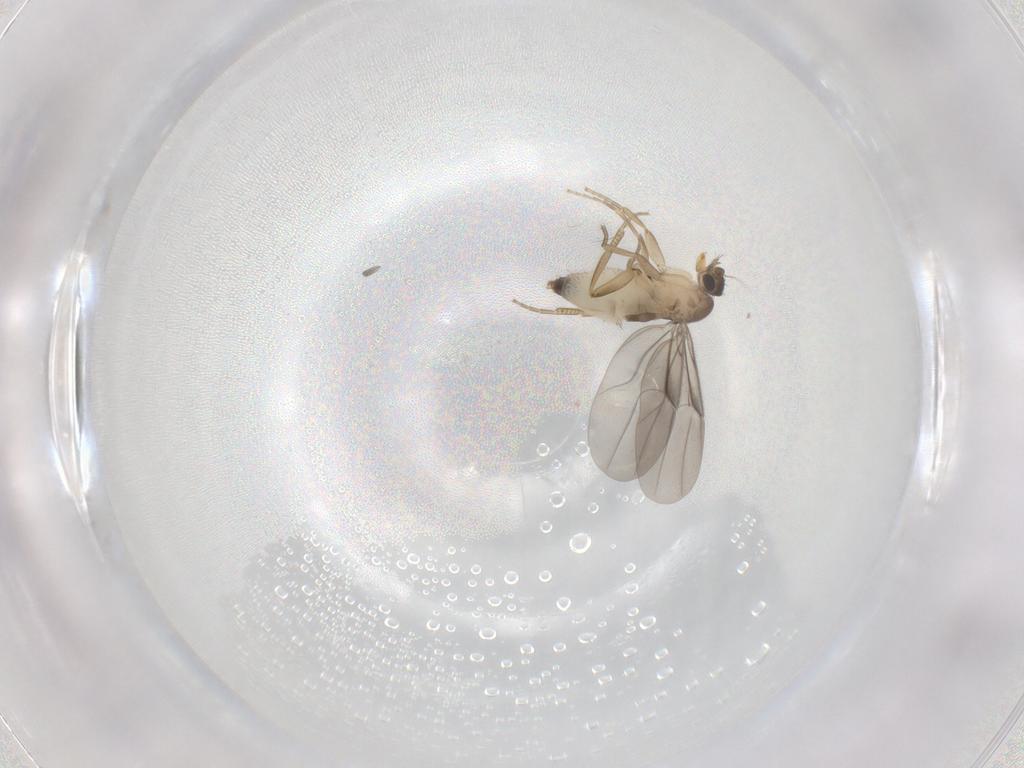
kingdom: Animalia
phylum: Arthropoda
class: Insecta
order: Diptera
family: Phoridae
